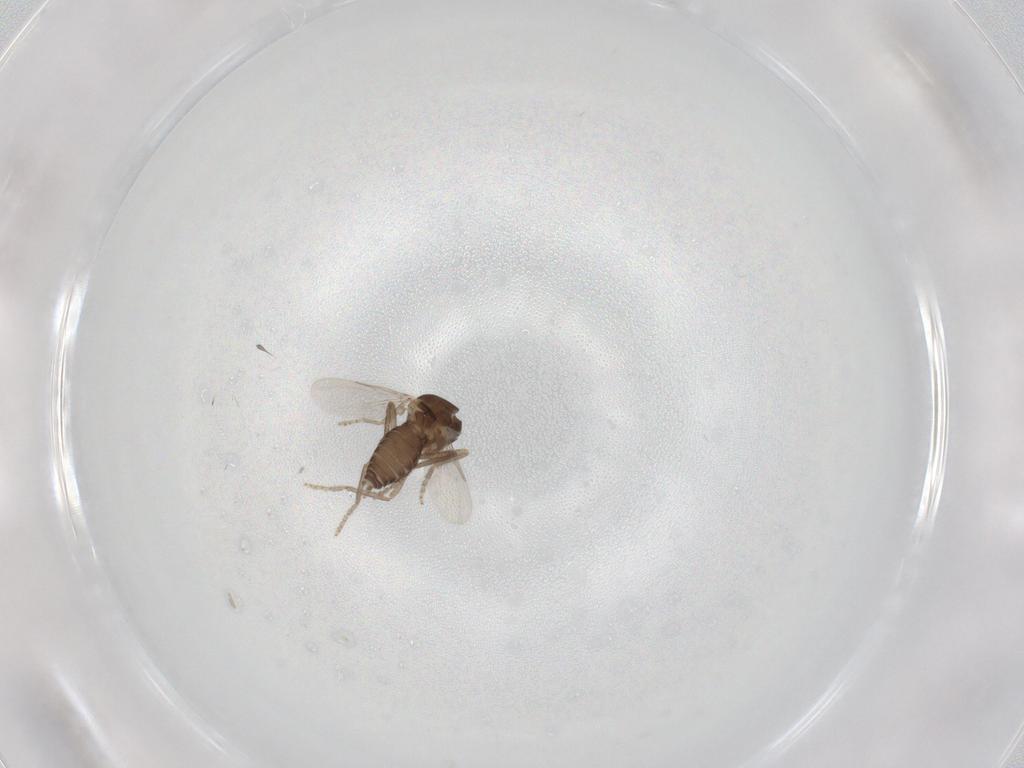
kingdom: Animalia
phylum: Arthropoda
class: Insecta
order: Diptera
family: Ceratopogonidae
